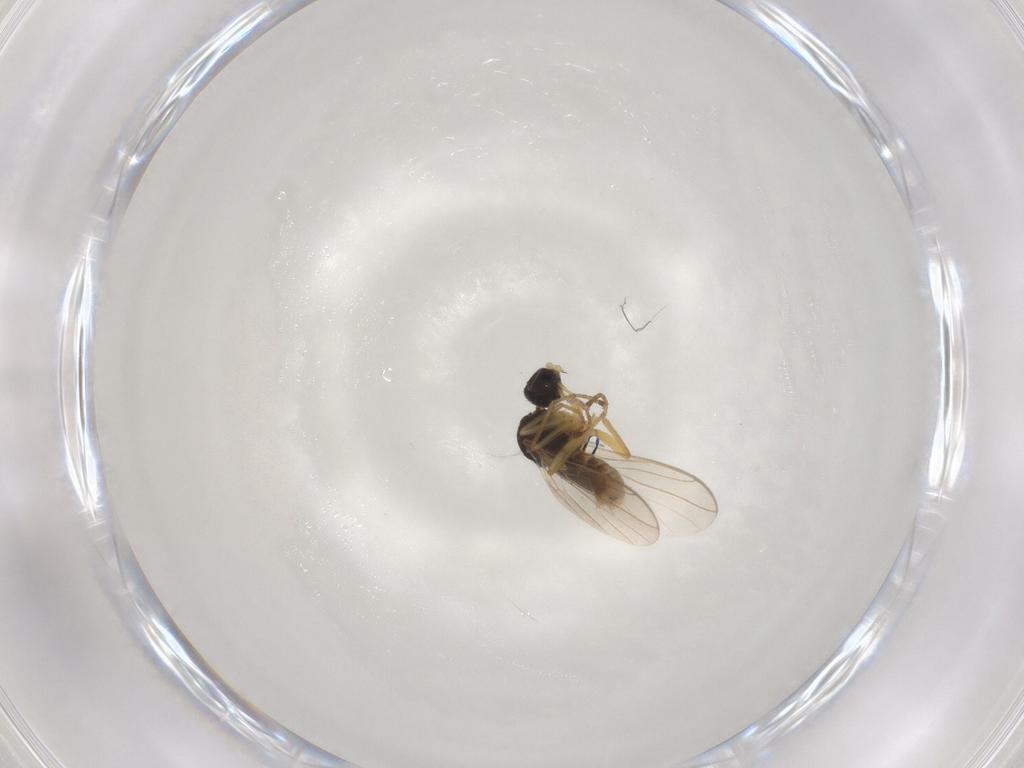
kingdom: Animalia
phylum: Arthropoda
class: Insecta
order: Diptera
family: Hybotidae
